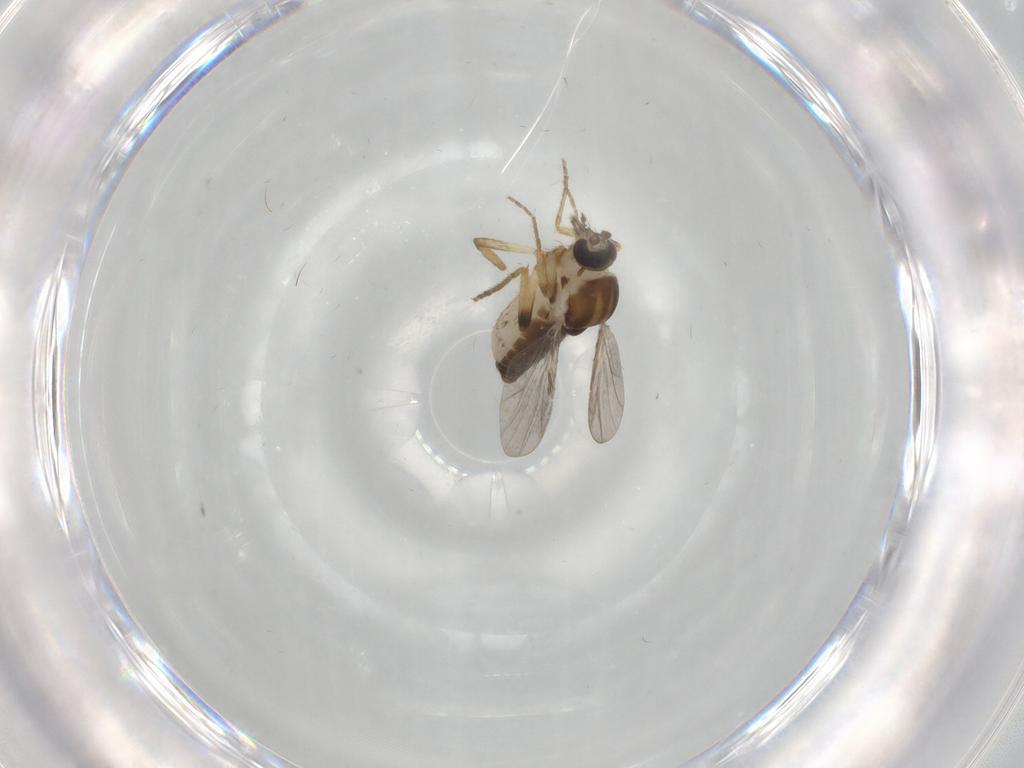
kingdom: Animalia
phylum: Arthropoda
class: Insecta
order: Diptera
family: Ceratopogonidae
